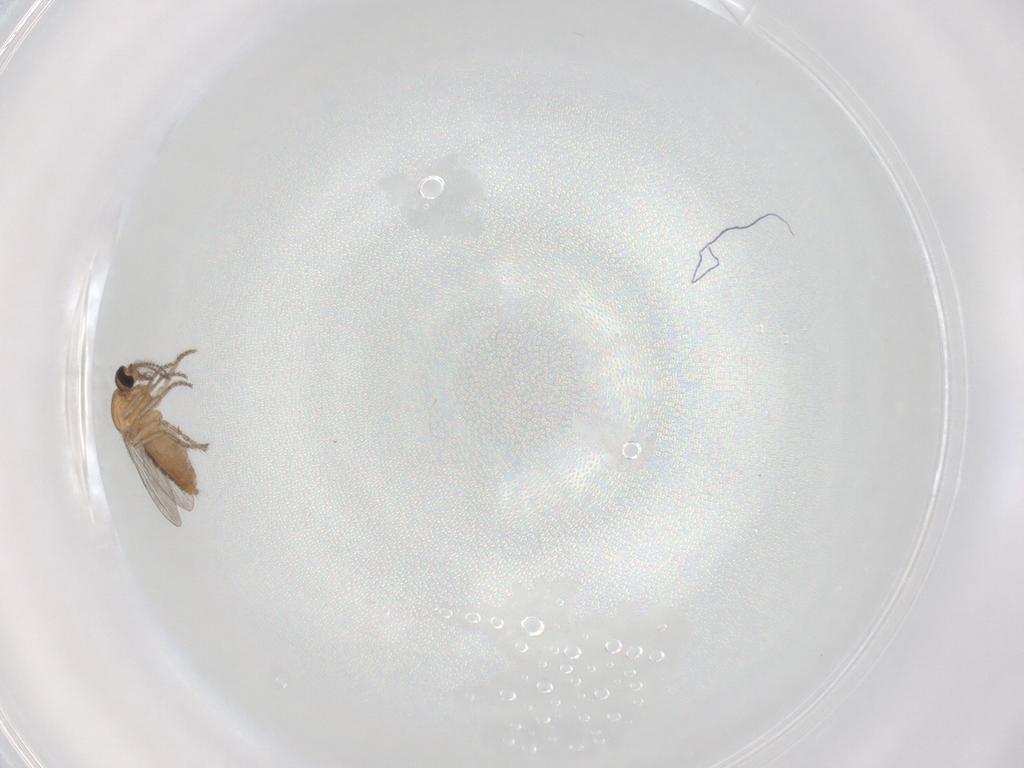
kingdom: Animalia
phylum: Arthropoda
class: Insecta
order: Diptera
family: Ceratopogonidae
